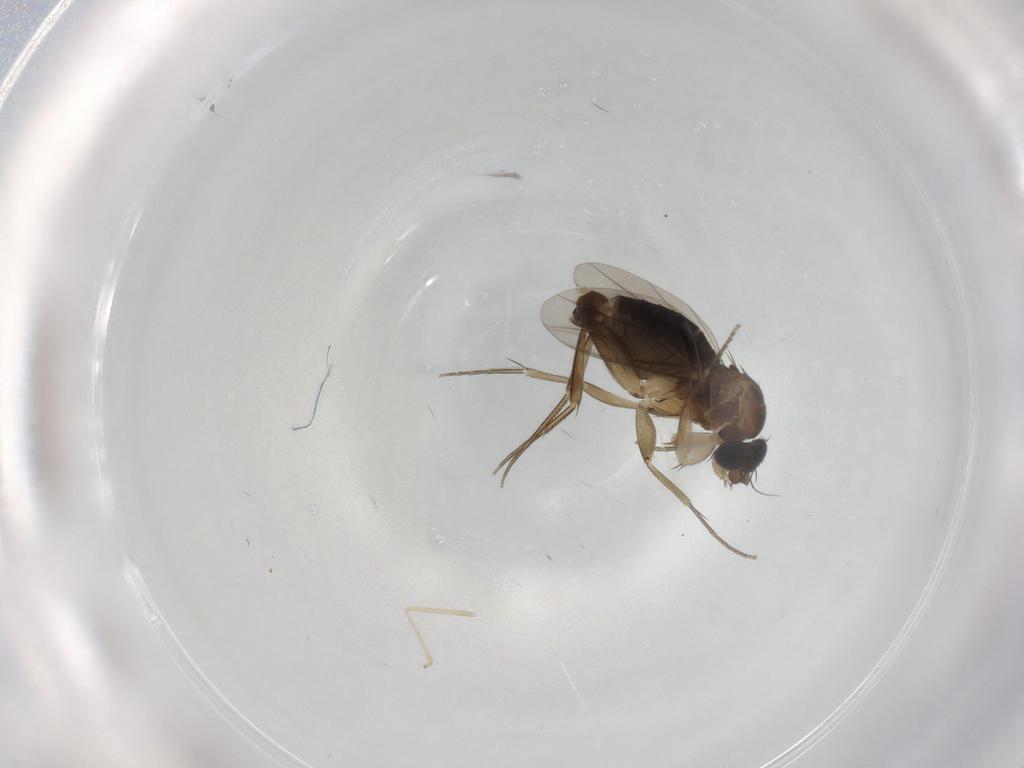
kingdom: Animalia
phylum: Arthropoda
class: Insecta
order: Diptera
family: Phoridae
